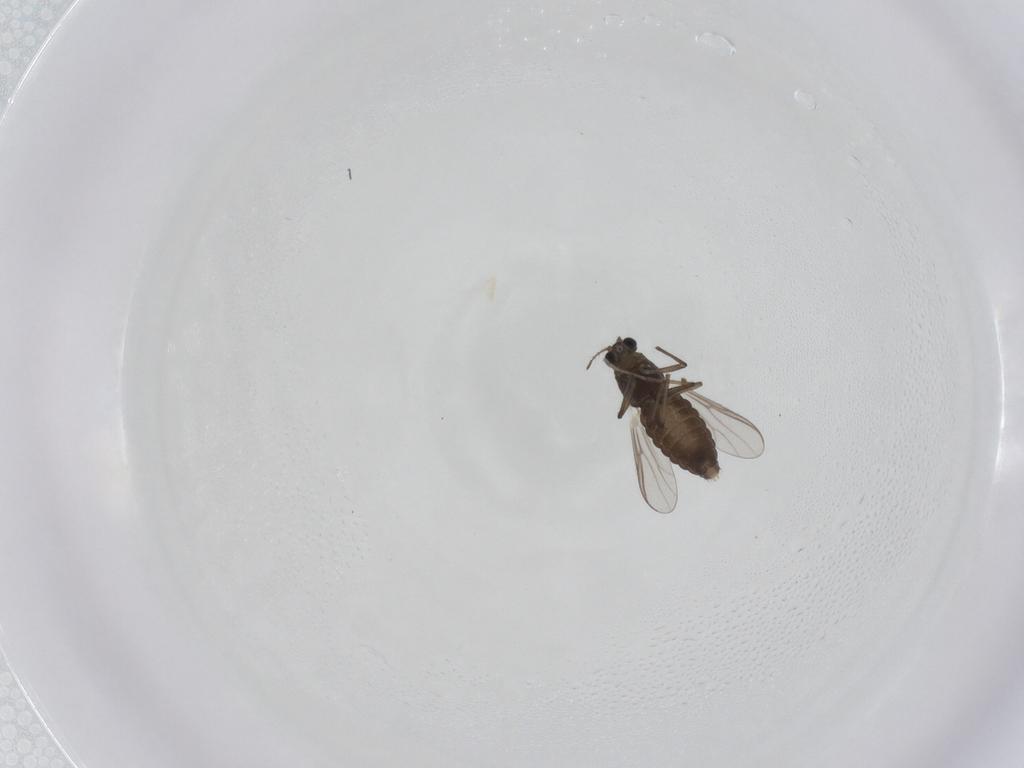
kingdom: Animalia
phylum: Arthropoda
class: Insecta
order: Diptera
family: Chironomidae
